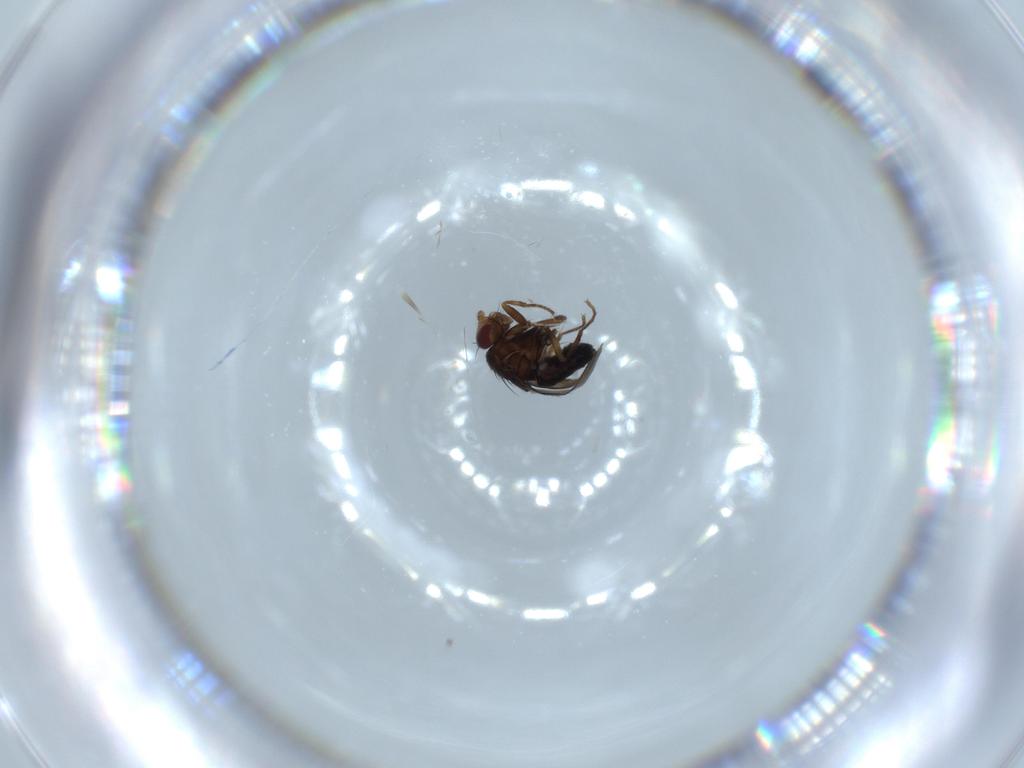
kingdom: Animalia
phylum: Arthropoda
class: Insecta
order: Diptera
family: Sphaeroceridae
